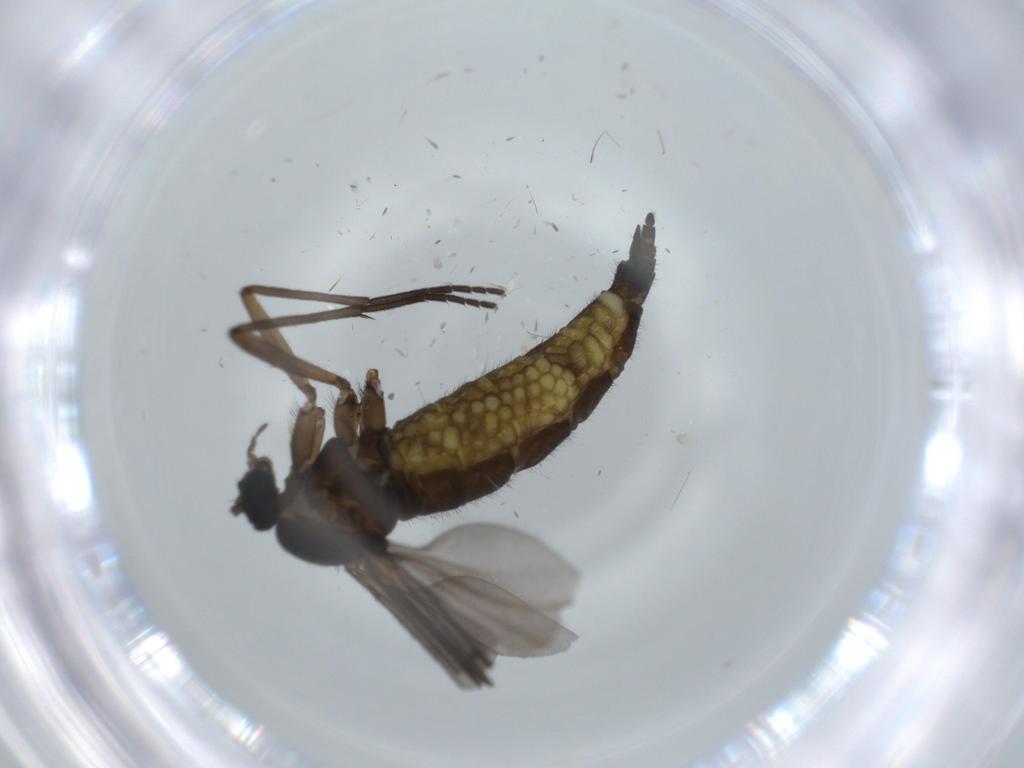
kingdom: Animalia
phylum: Arthropoda
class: Insecta
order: Diptera
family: Sciaridae
